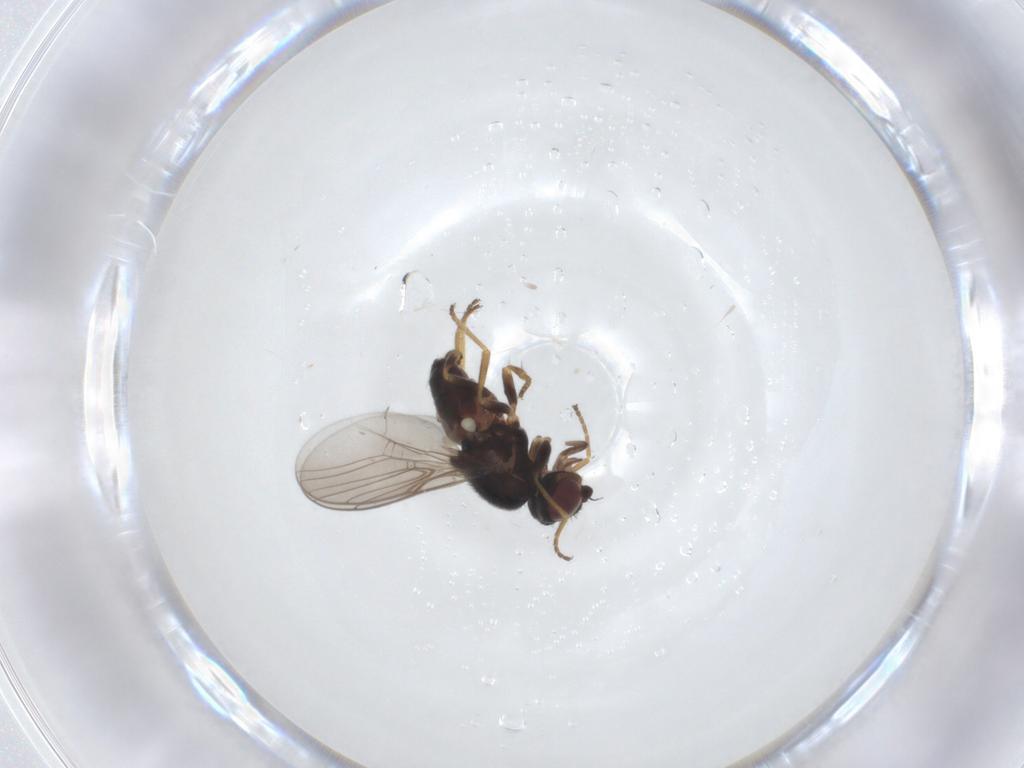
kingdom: Animalia
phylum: Arthropoda
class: Insecta
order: Diptera
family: Chloropidae
